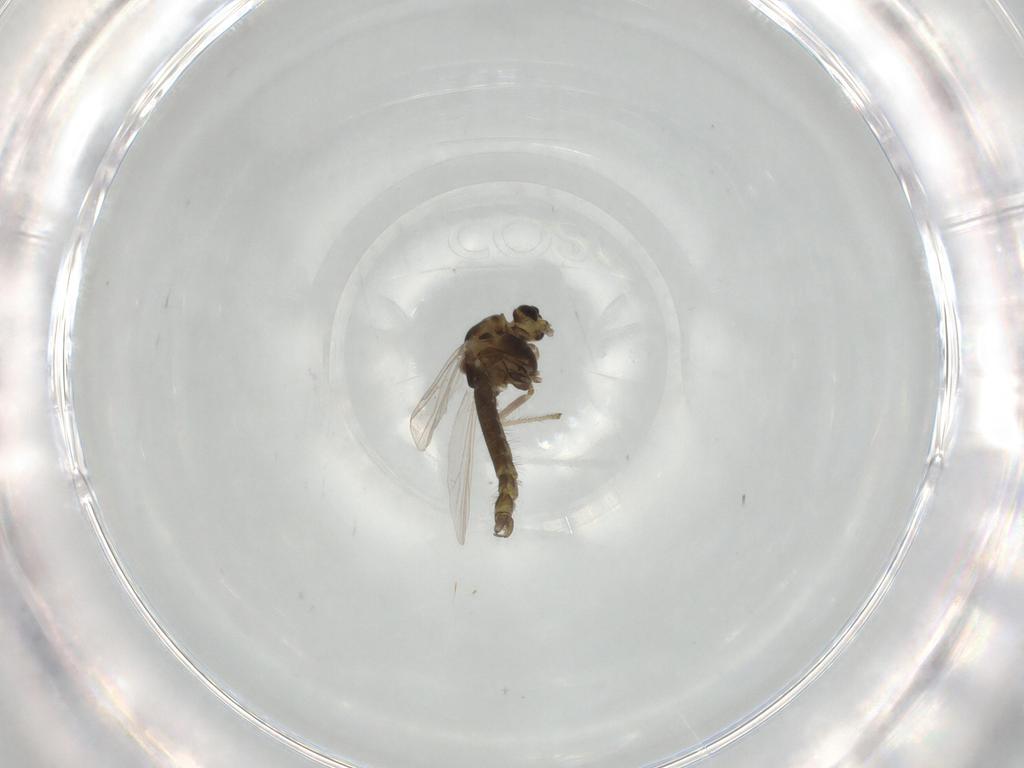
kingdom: Animalia
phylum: Arthropoda
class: Insecta
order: Diptera
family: Chironomidae
